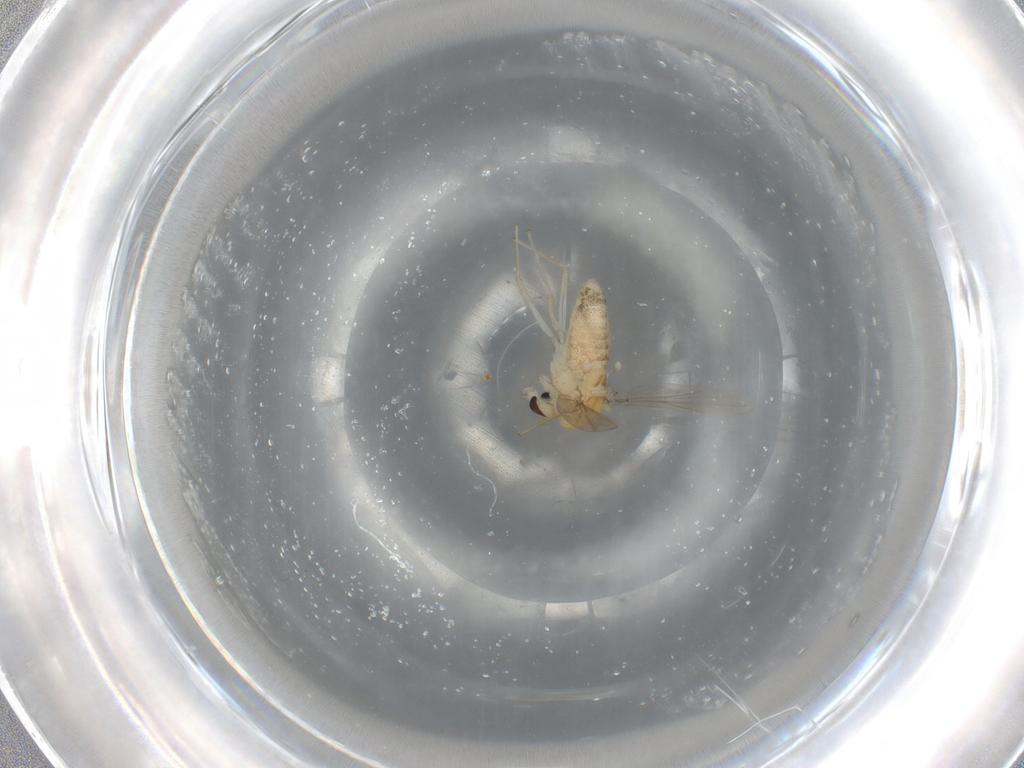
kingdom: Animalia
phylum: Arthropoda
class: Insecta
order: Diptera
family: Chironomidae
